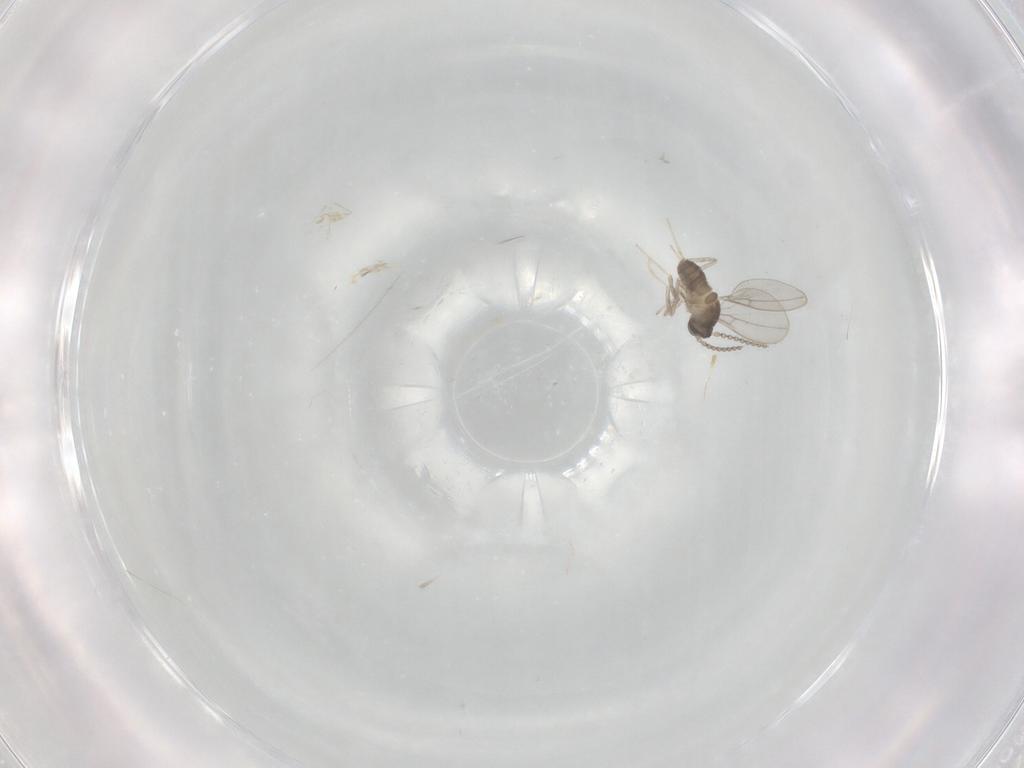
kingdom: Animalia
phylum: Arthropoda
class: Insecta
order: Diptera
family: Cecidomyiidae
